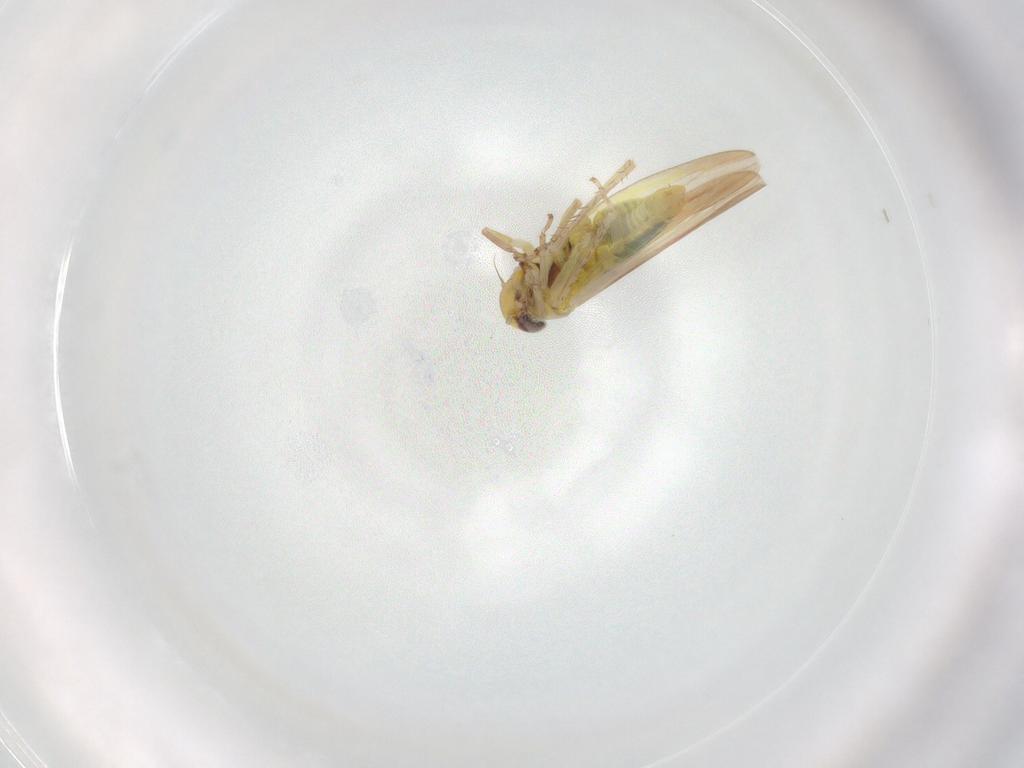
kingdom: Animalia
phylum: Arthropoda
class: Insecta
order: Hemiptera
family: Cicadellidae
